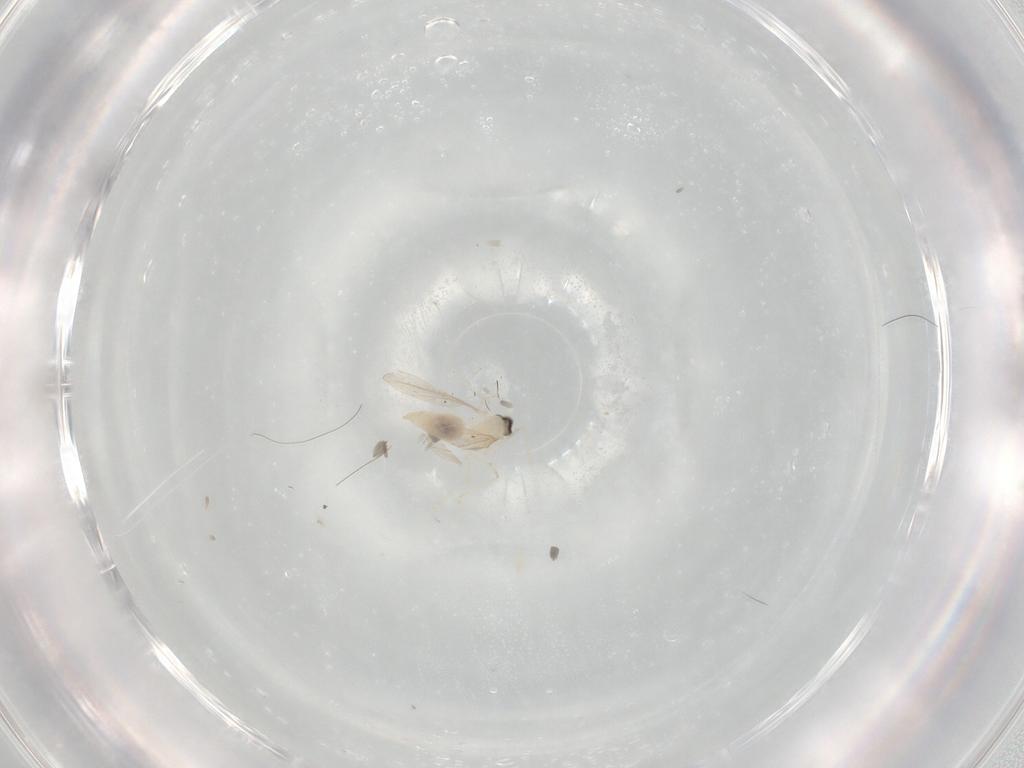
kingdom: Animalia
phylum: Arthropoda
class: Insecta
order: Diptera
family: Cecidomyiidae
